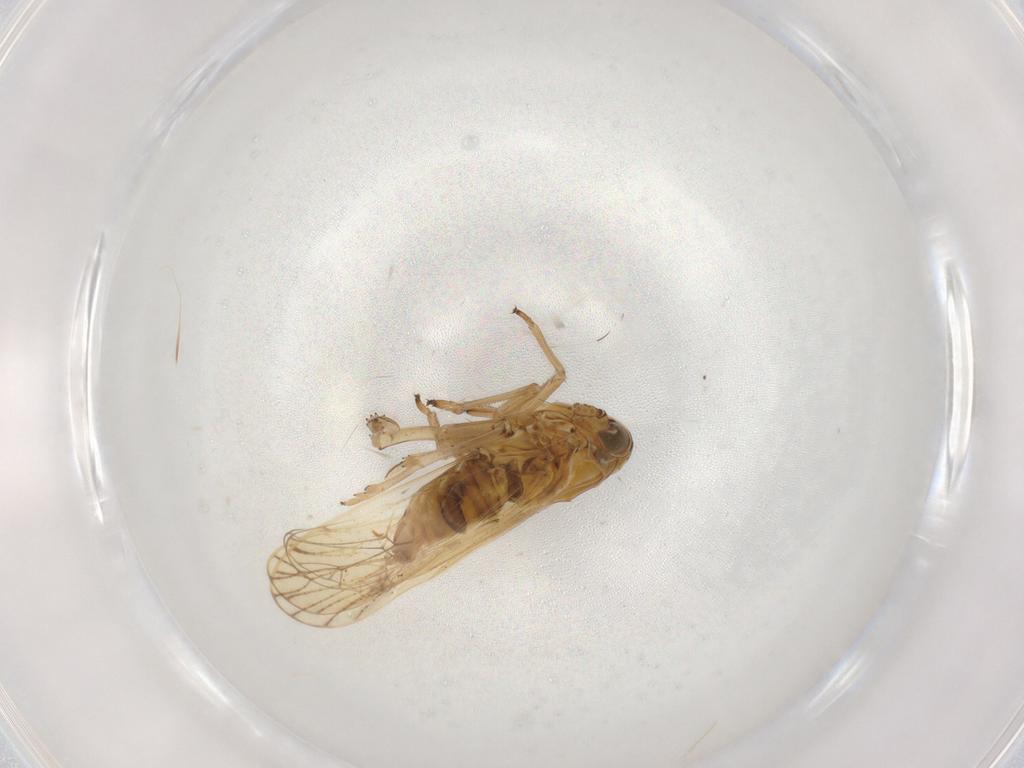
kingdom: Animalia
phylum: Arthropoda
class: Insecta
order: Hemiptera
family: Delphacidae
